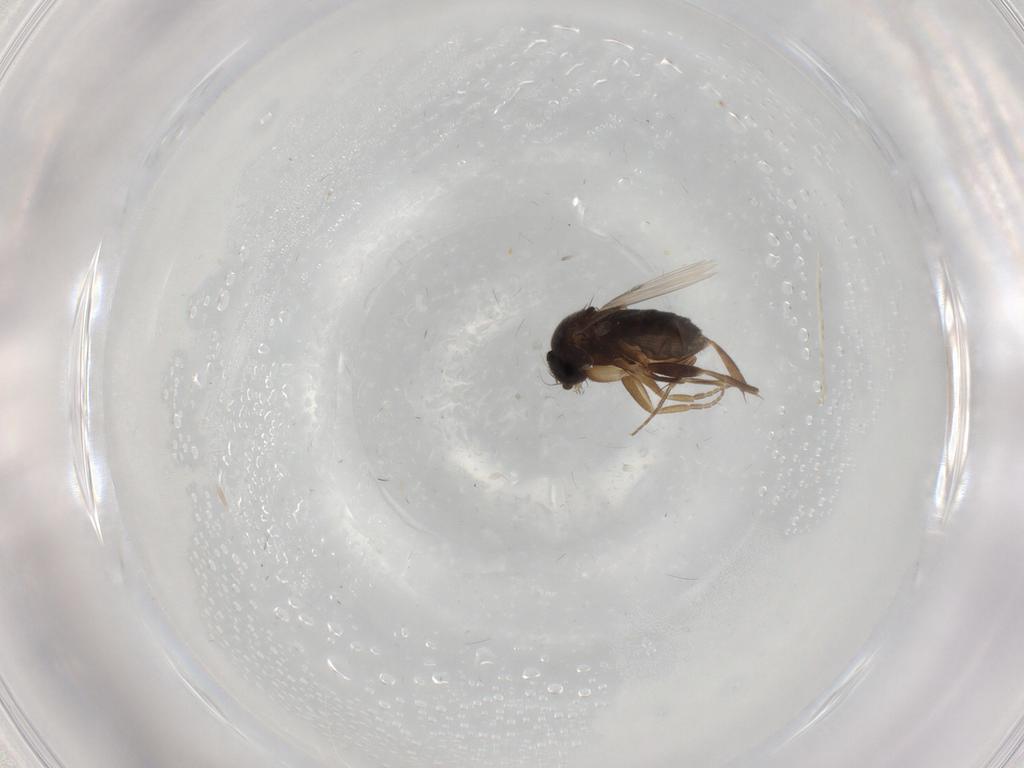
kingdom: Animalia
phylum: Arthropoda
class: Insecta
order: Diptera
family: Phoridae
